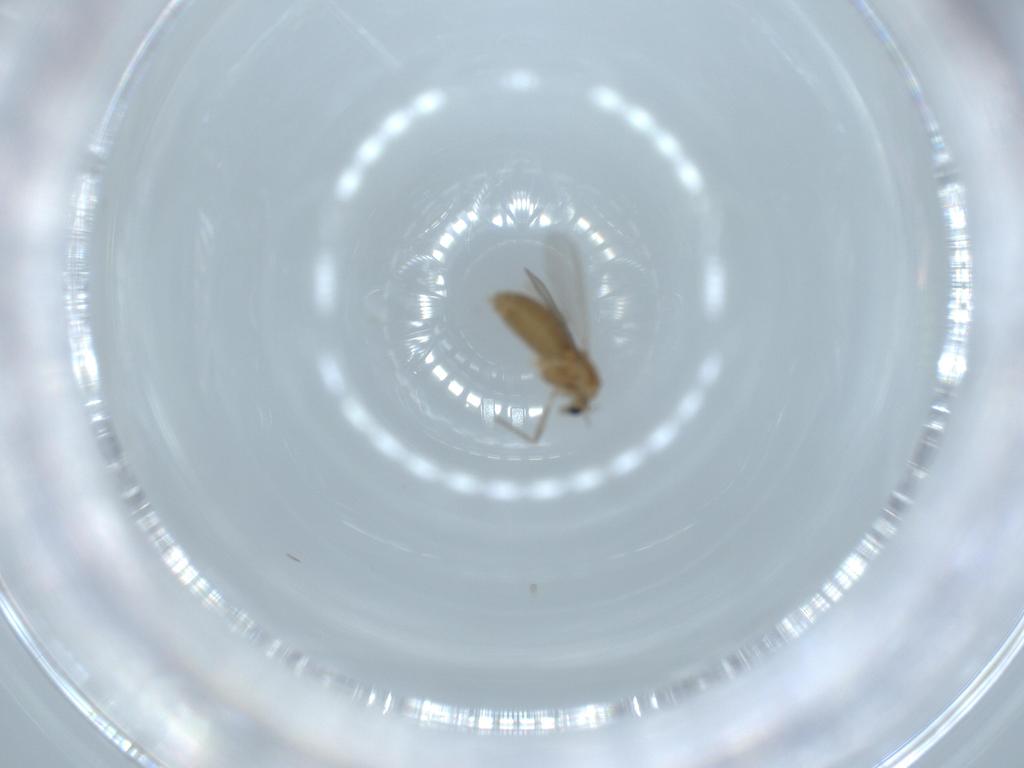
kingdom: Animalia
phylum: Arthropoda
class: Insecta
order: Diptera
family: Chironomidae
